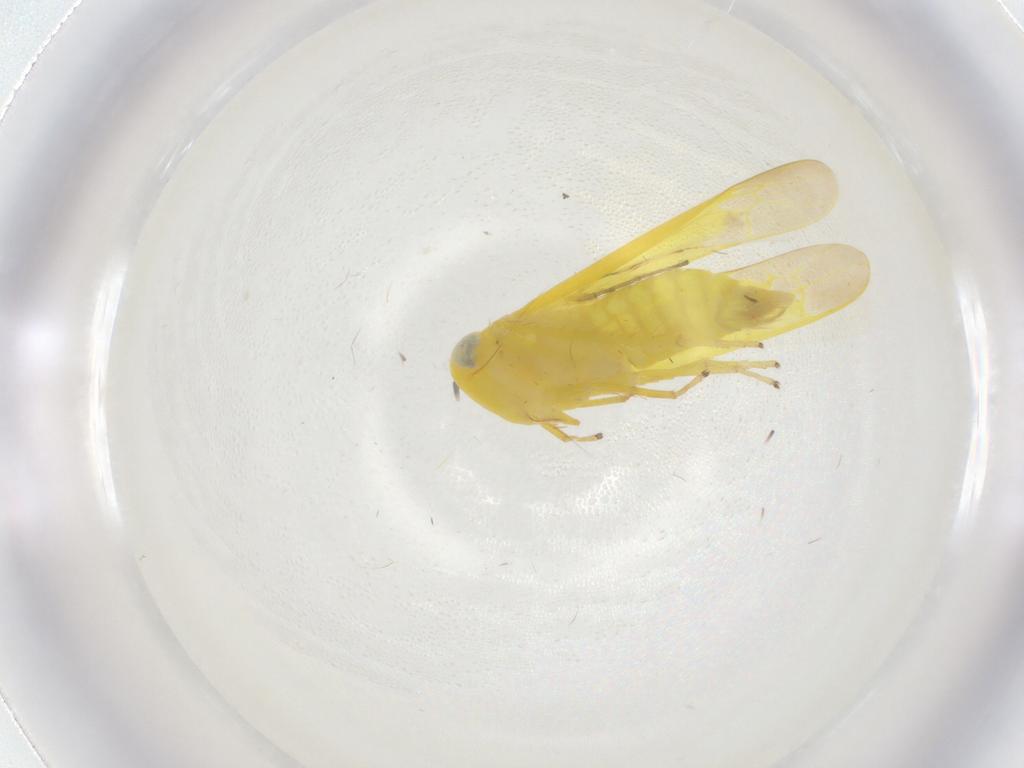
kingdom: Animalia
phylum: Arthropoda
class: Insecta
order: Hemiptera
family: Cicadellidae
